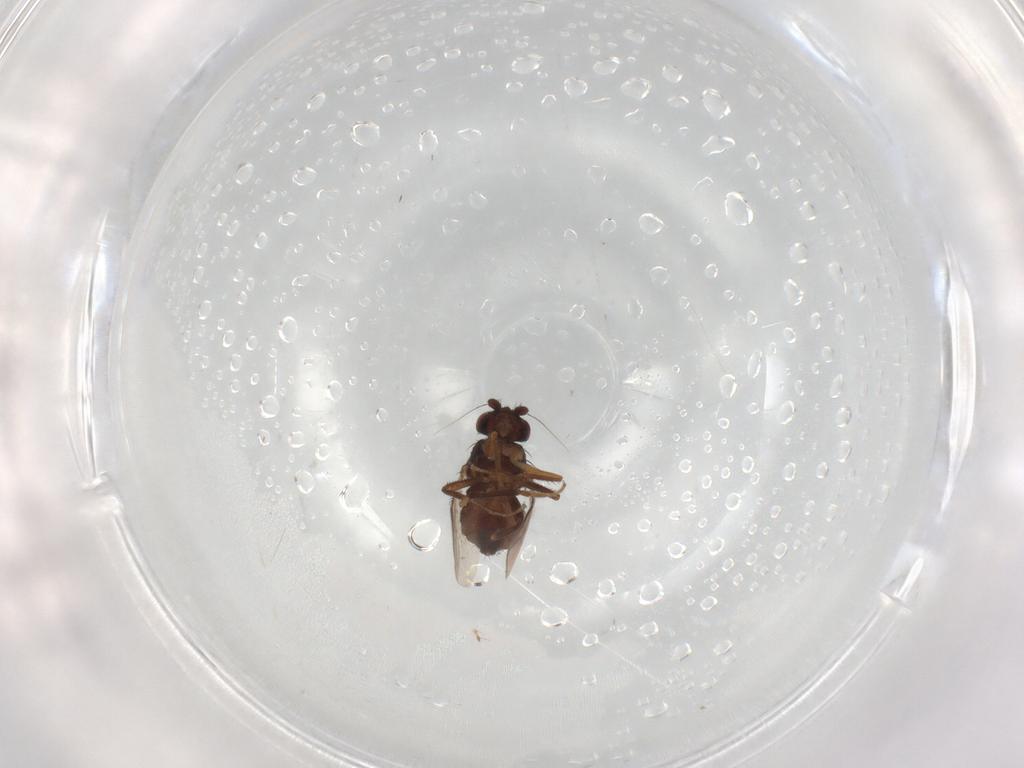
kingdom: Animalia
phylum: Arthropoda
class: Insecta
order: Diptera
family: Sphaeroceridae
